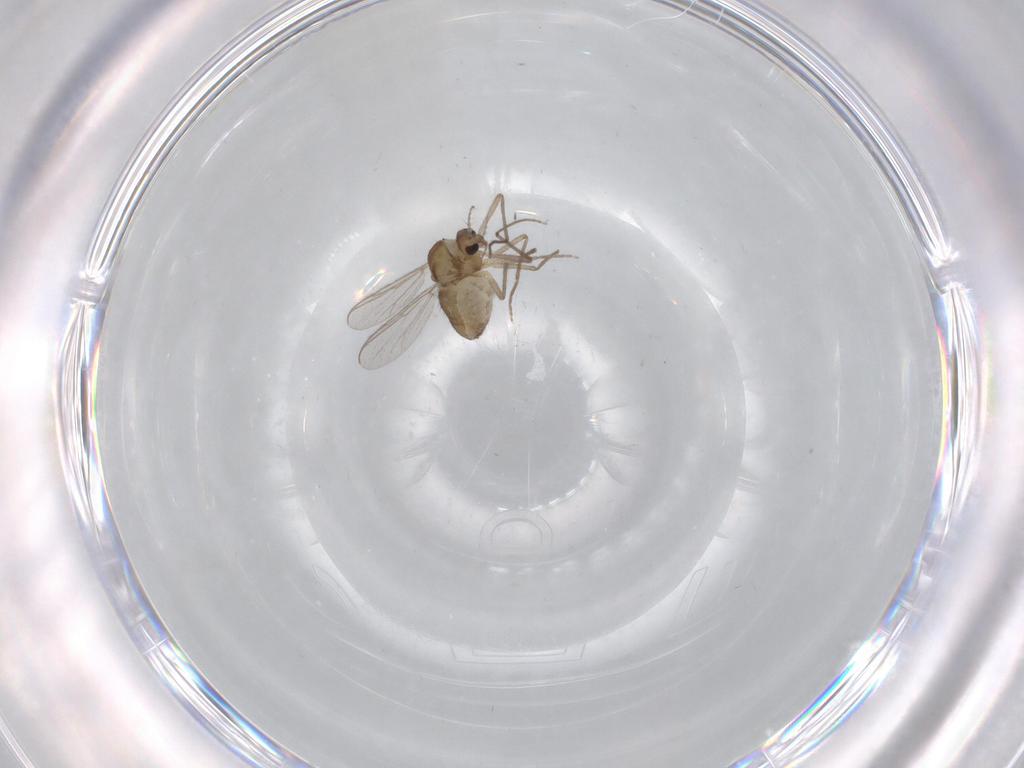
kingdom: Animalia
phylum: Arthropoda
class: Insecta
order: Diptera
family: Chironomidae
